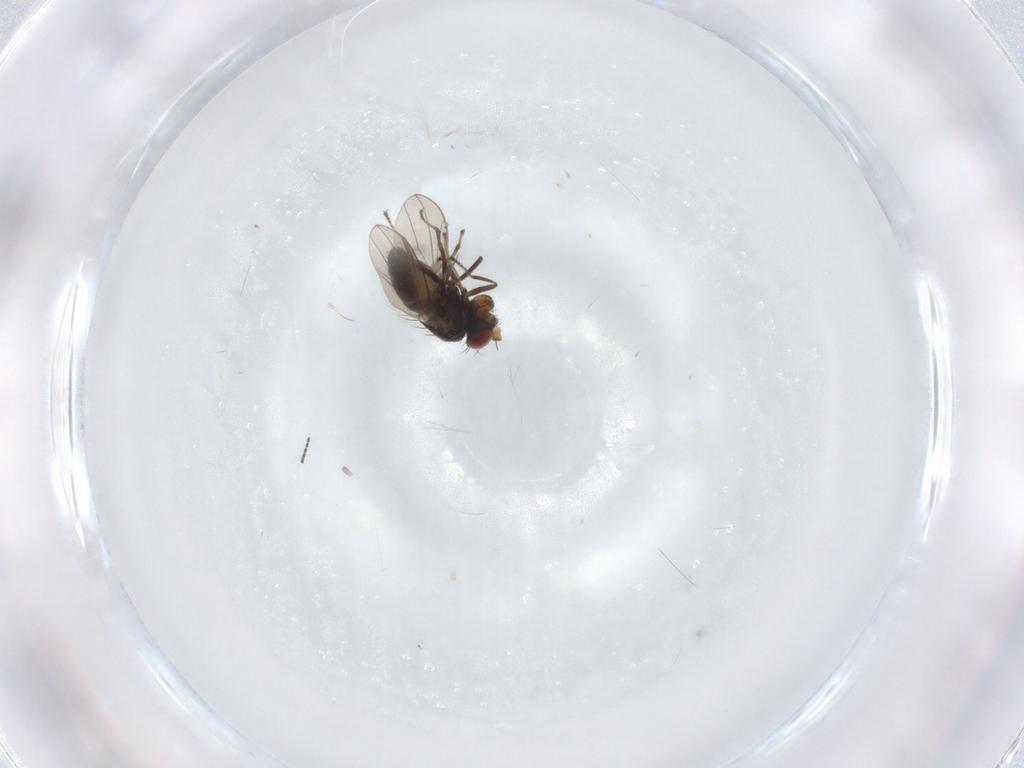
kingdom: Animalia
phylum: Arthropoda
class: Insecta
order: Diptera
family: Ephydridae
